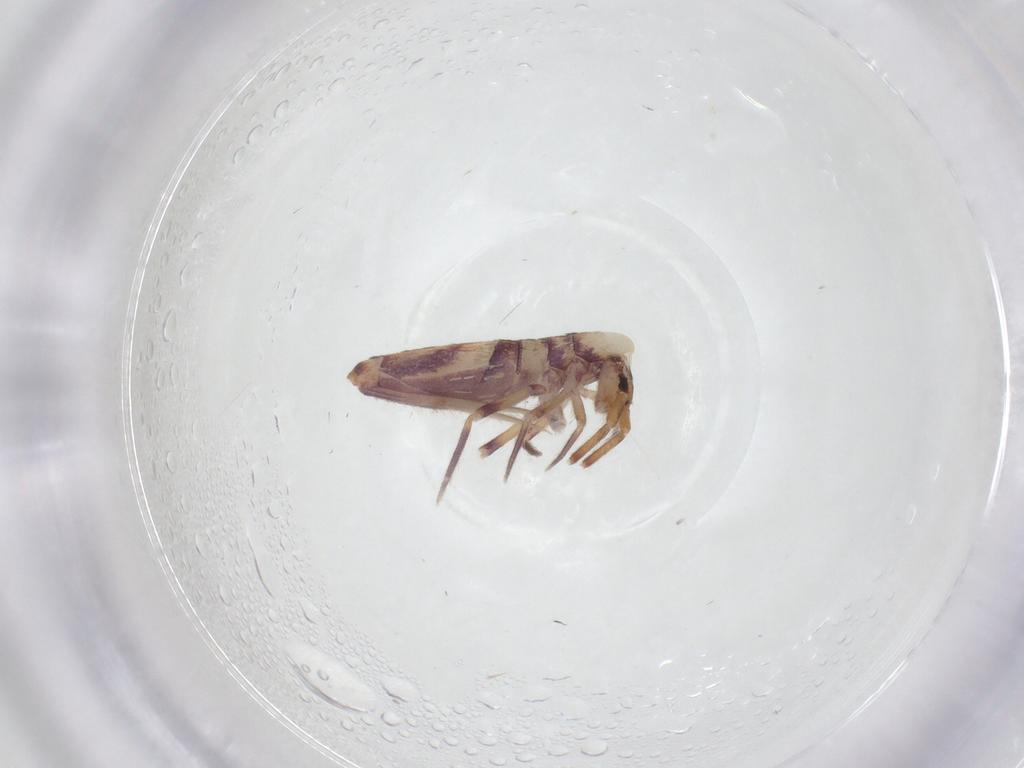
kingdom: Animalia
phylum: Arthropoda
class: Collembola
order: Entomobryomorpha
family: Entomobryidae
